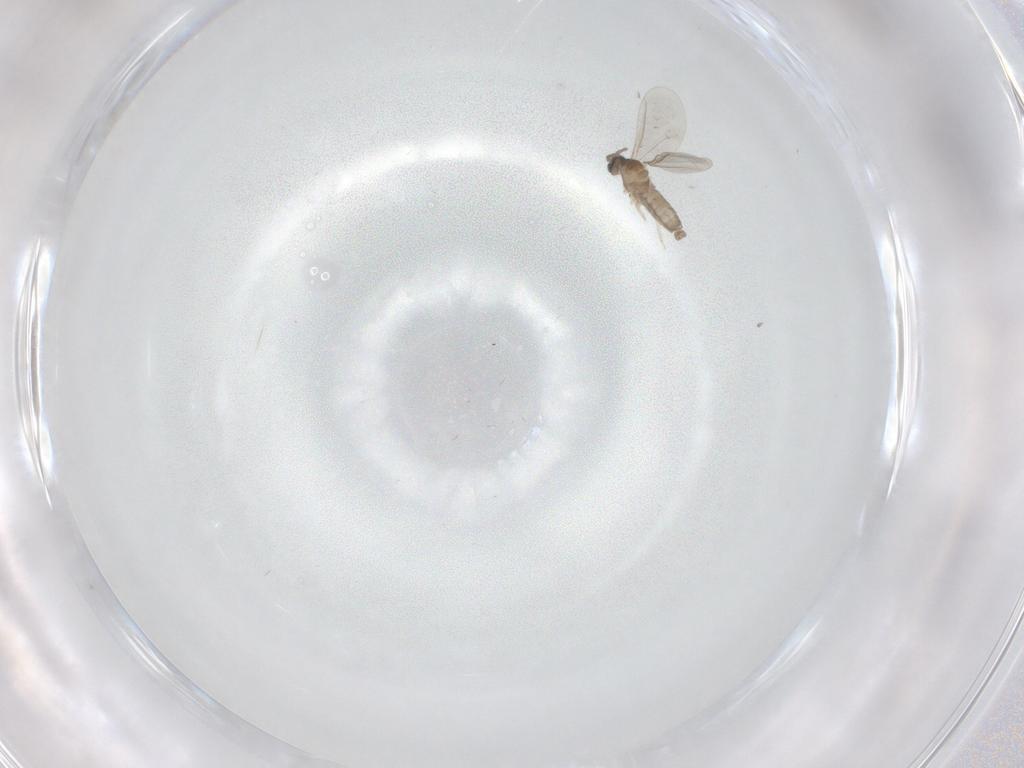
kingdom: Animalia
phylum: Arthropoda
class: Insecta
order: Diptera
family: Cecidomyiidae
